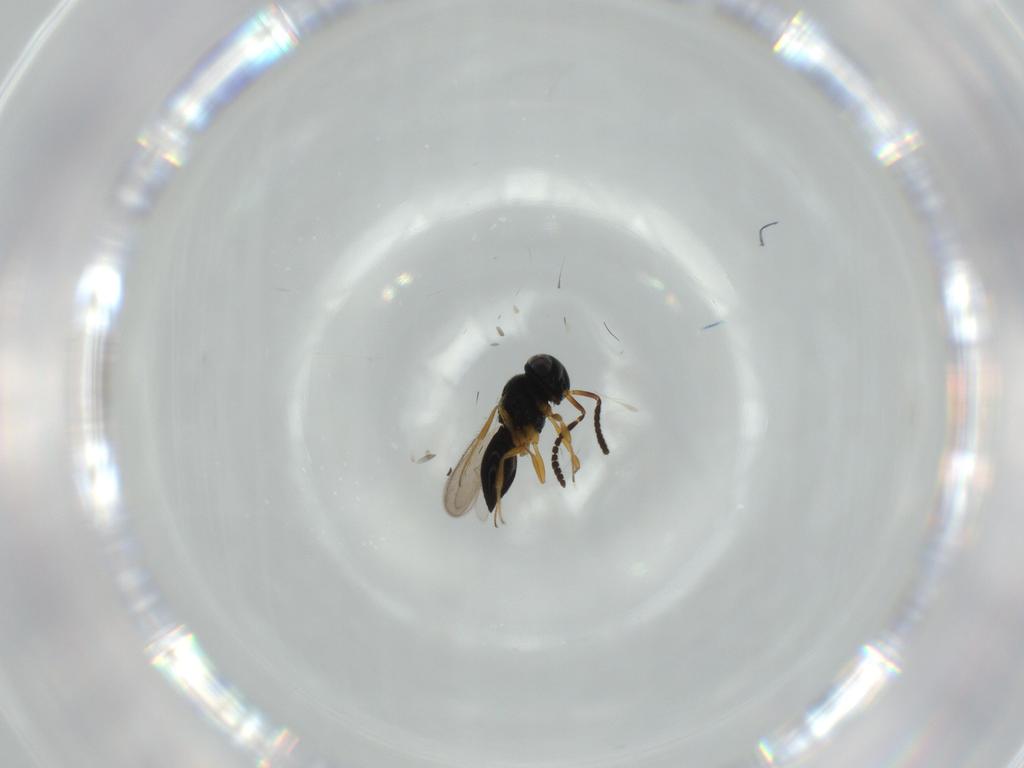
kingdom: Animalia
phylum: Arthropoda
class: Insecta
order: Hymenoptera
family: Scelionidae
